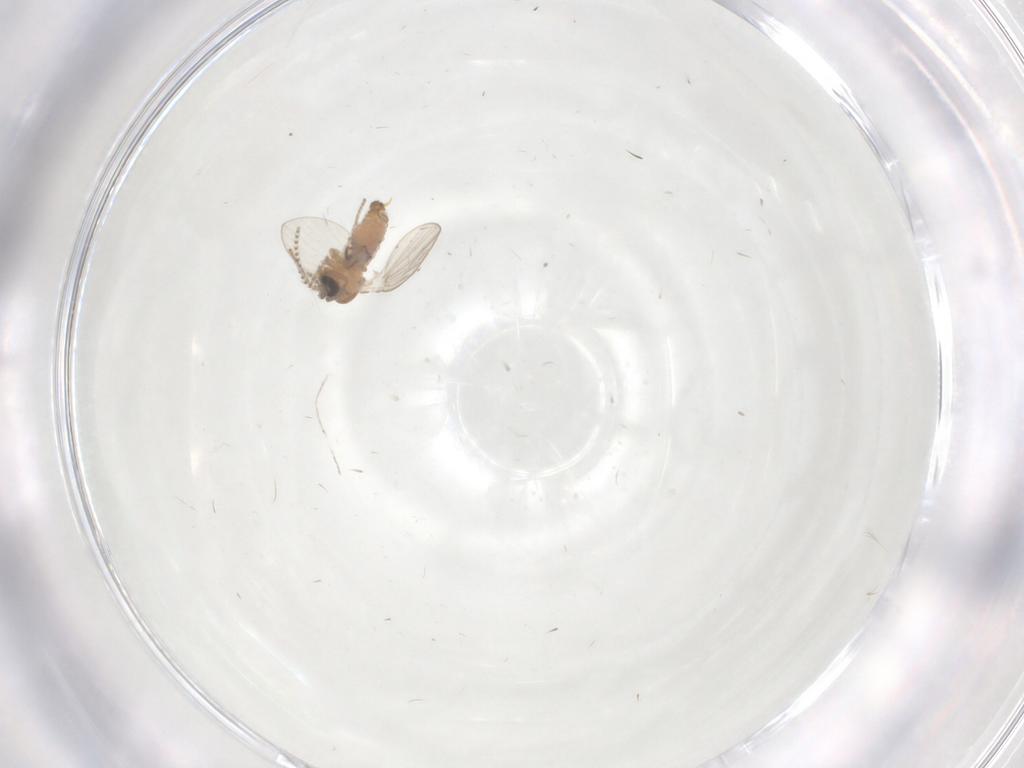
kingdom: Animalia
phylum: Arthropoda
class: Insecta
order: Diptera
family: Psychodidae
